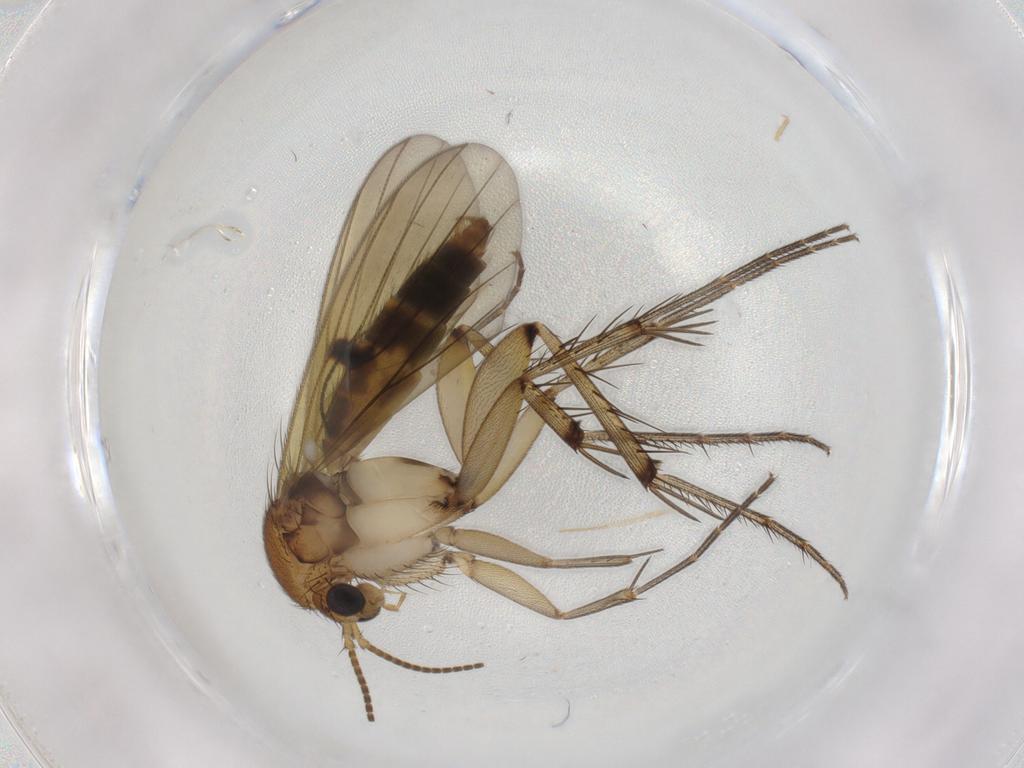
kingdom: Animalia
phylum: Arthropoda
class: Insecta
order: Diptera
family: Sciaridae
